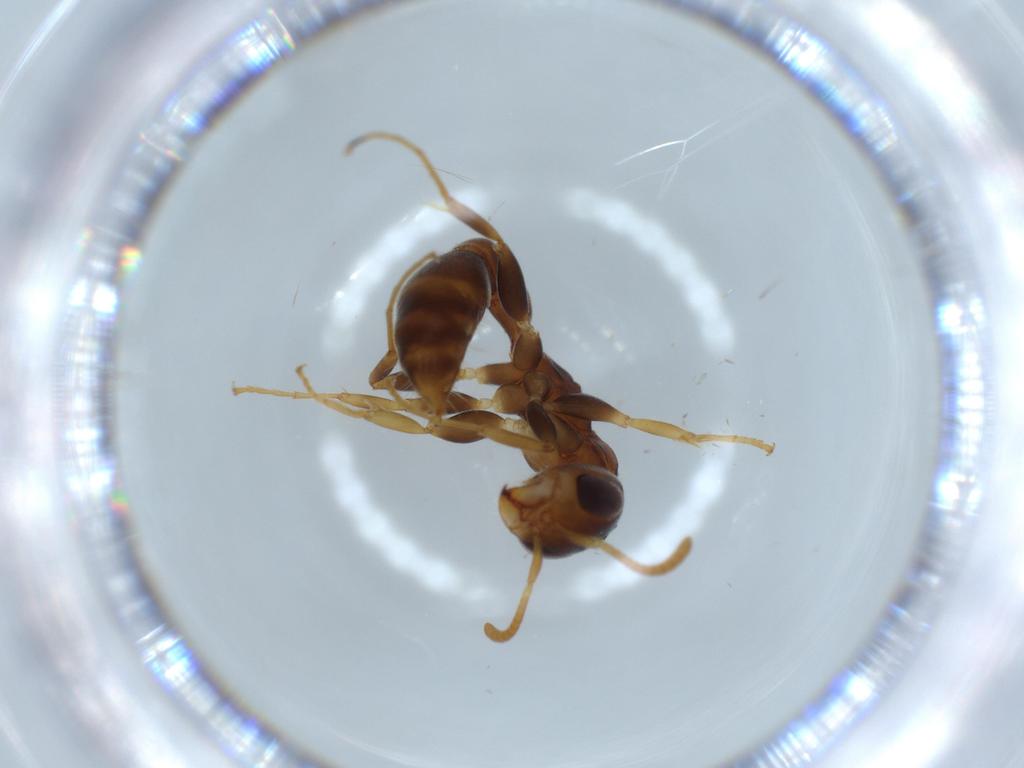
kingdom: Animalia
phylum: Arthropoda
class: Insecta
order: Hymenoptera
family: Formicidae
